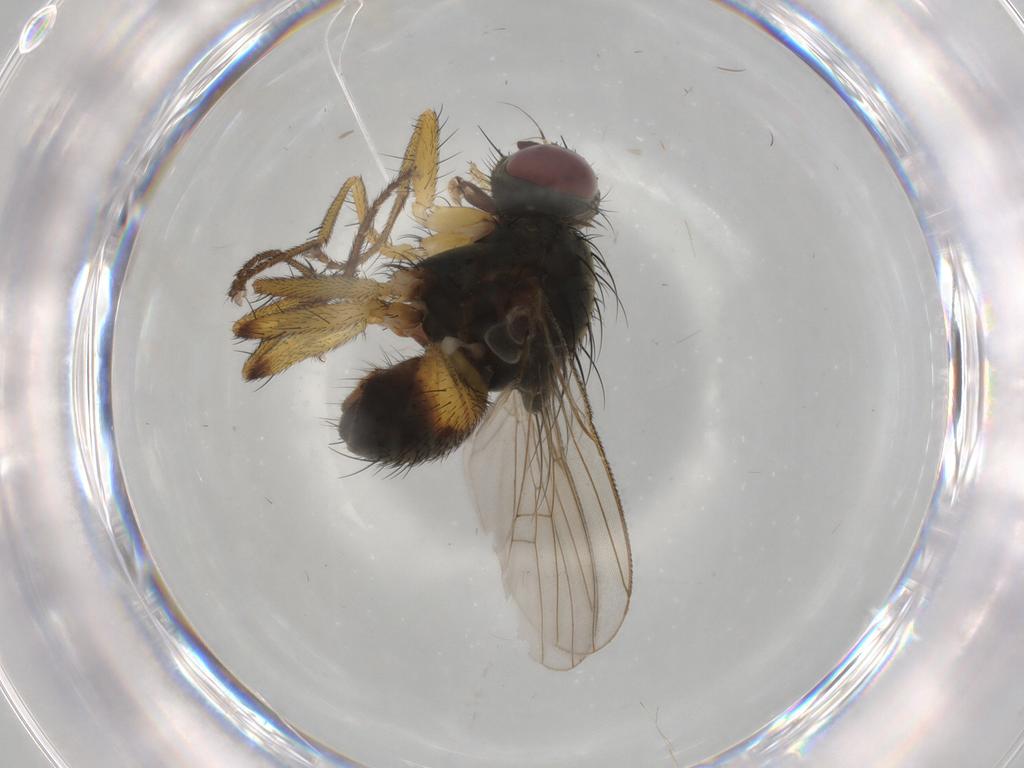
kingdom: Animalia
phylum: Arthropoda
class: Insecta
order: Diptera
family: Muscidae
